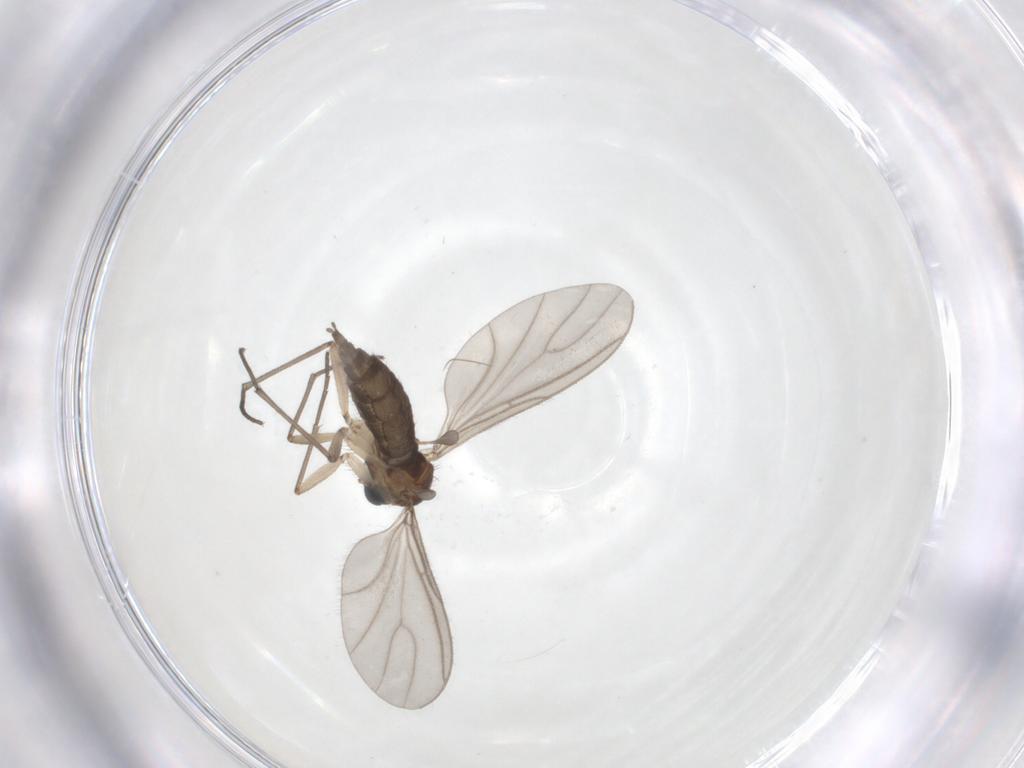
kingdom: Animalia
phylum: Arthropoda
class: Insecta
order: Diptera
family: Sciaridae
